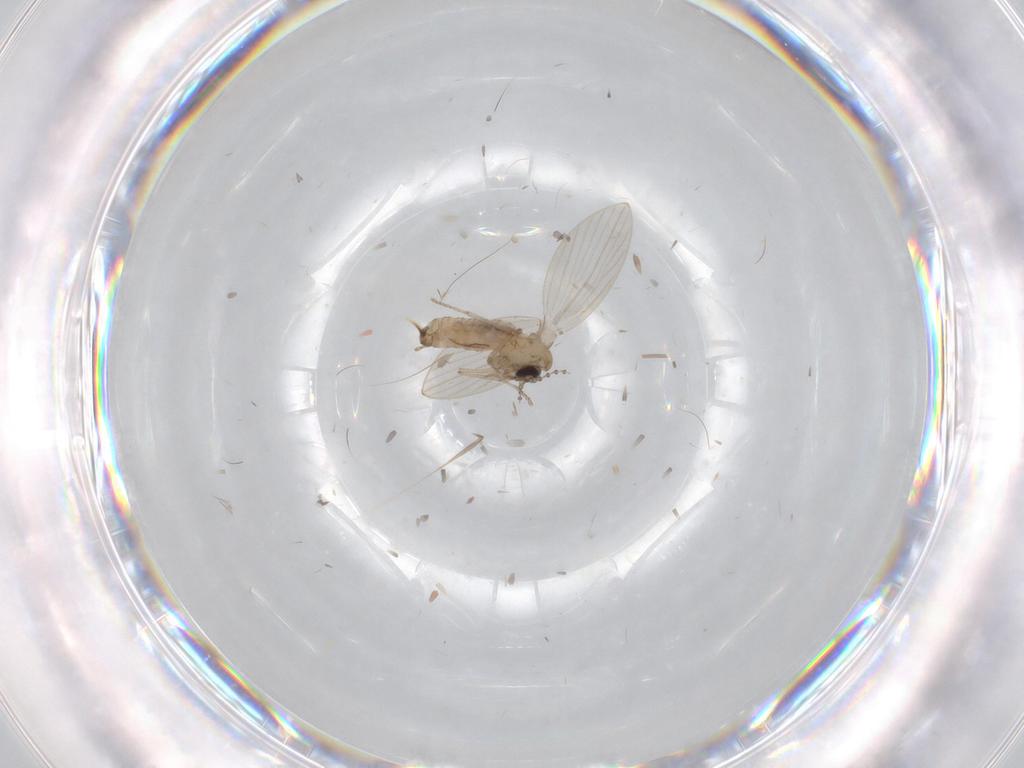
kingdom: Animalia
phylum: Arthropoda
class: Insecta
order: Diptera
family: Psychodidae
